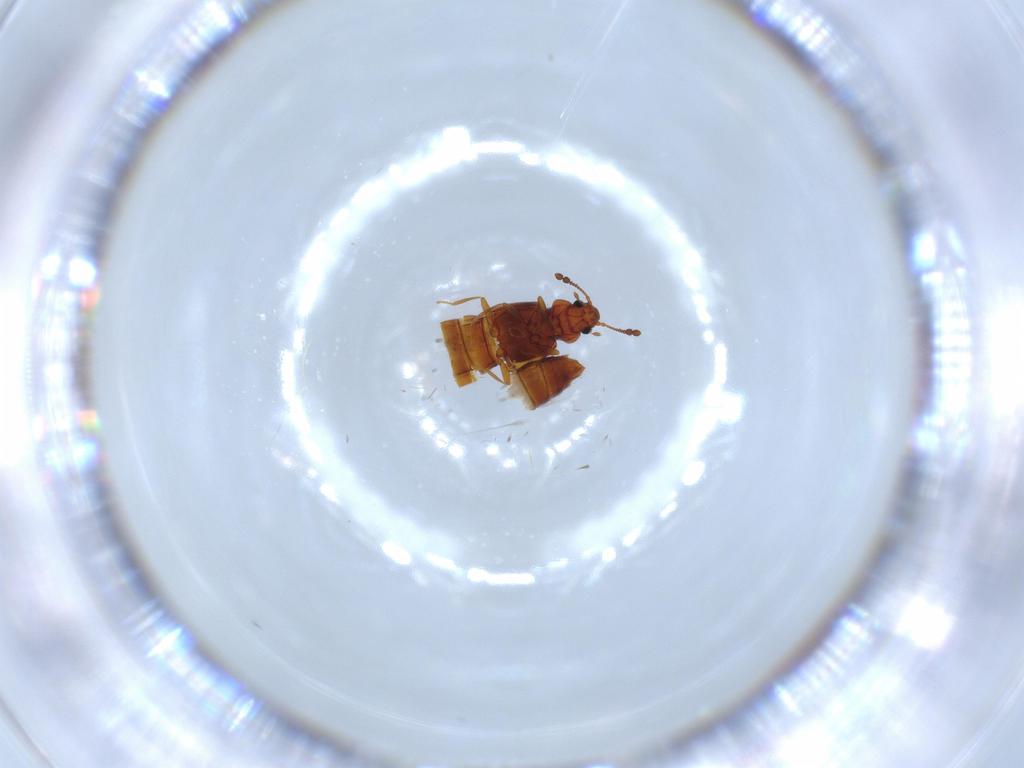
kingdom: Animalia
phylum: Arthropoda
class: Insecta
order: Coleoptera
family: Staphylinidae
